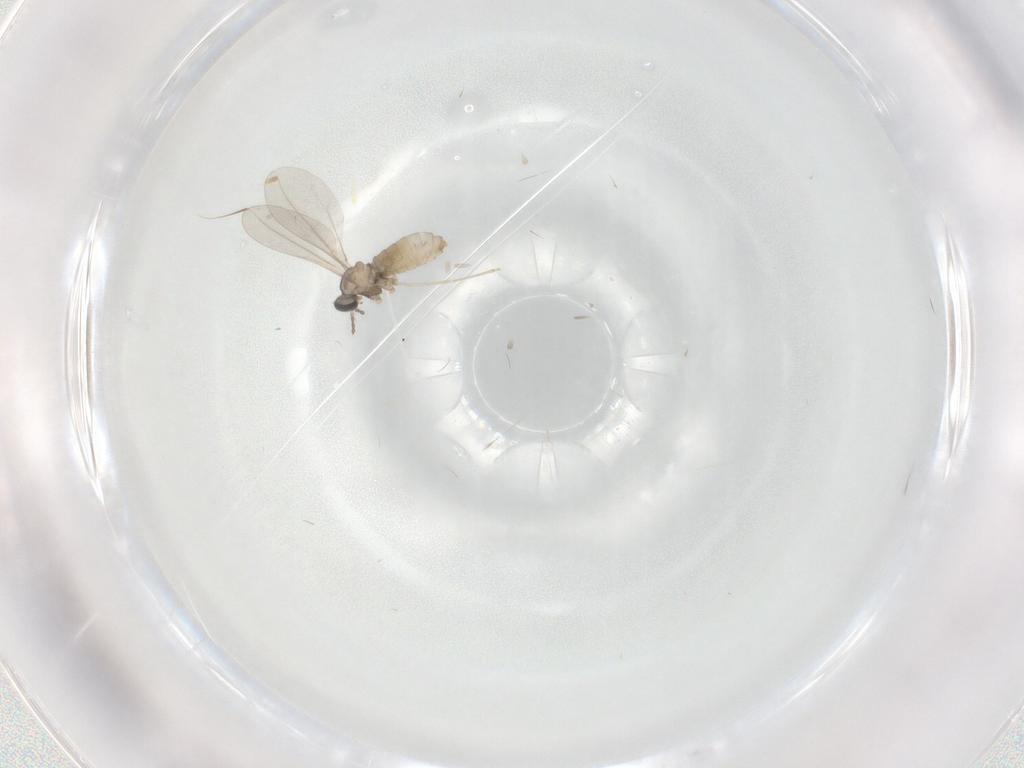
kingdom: Animalia
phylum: Arthropoda
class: Insecta
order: Diptera
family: Cecidomyiidae
